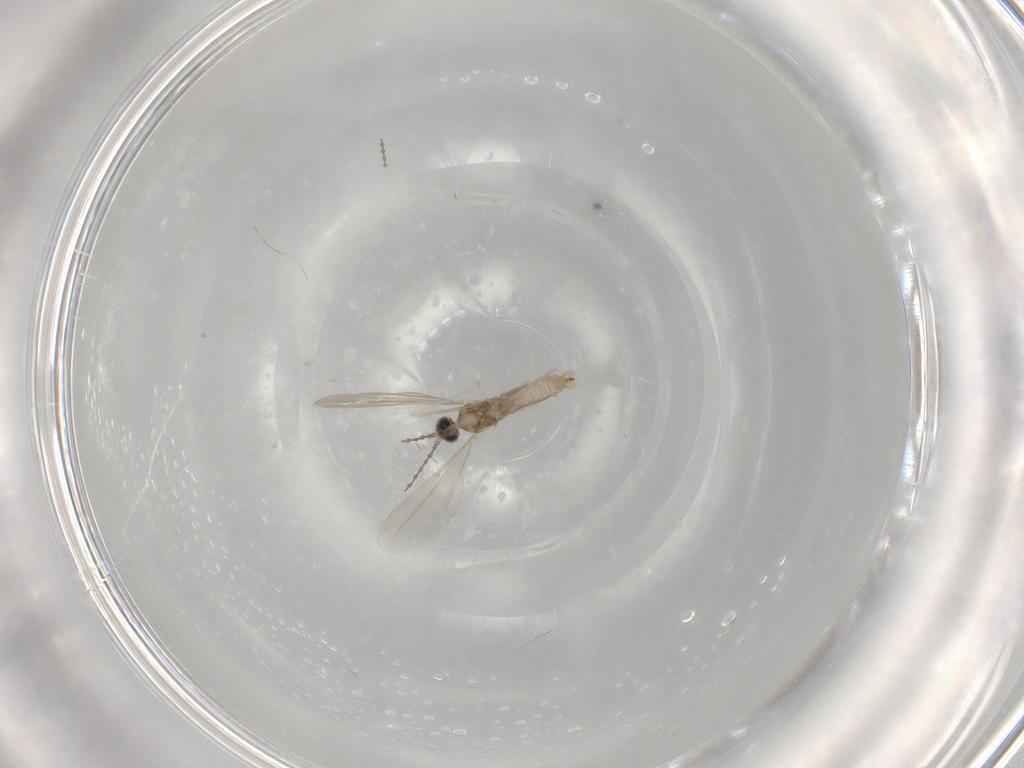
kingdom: Animalia
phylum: Arthropoda
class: Insecta
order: Diptera
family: Cecidomyiidae
